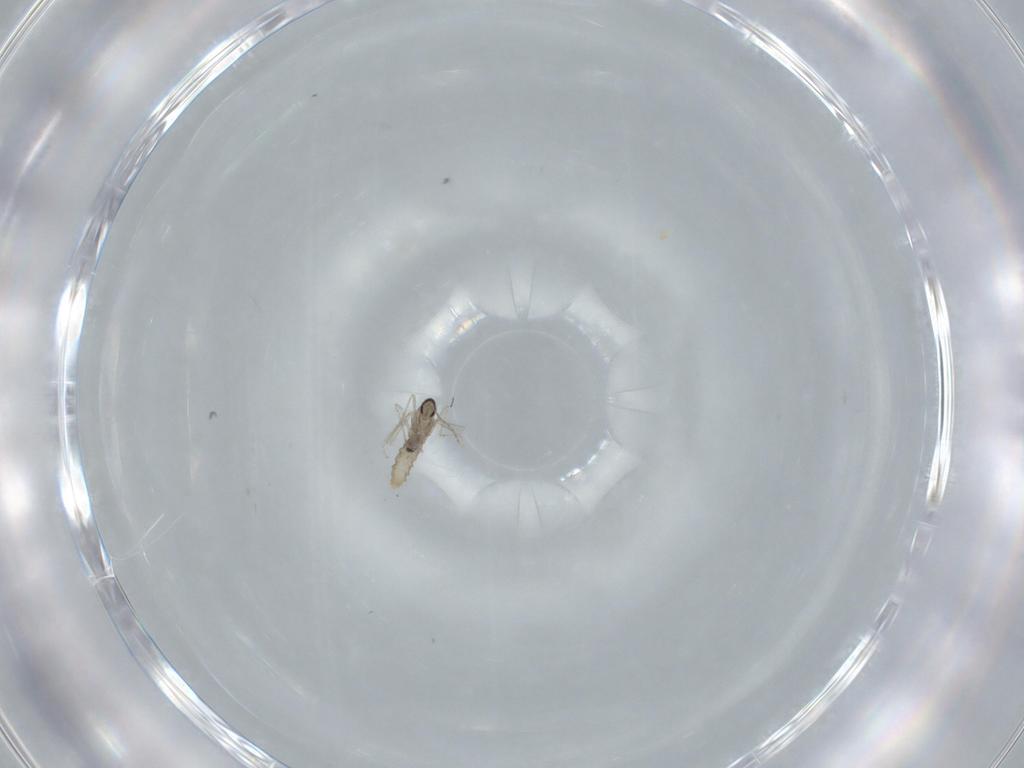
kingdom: Animalia
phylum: Arthropoda
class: Insecta
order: Diptera
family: Cecidomyiidae
